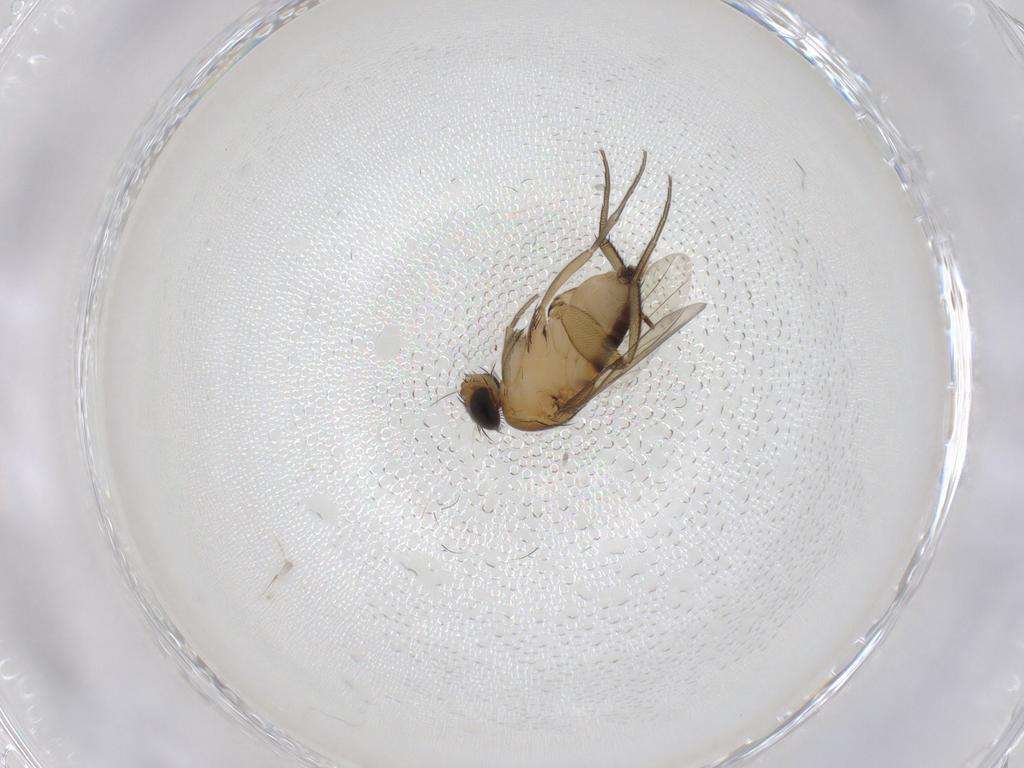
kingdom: Animalia
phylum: Arthropoda
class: Insecta
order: Diptera
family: Phoridae
